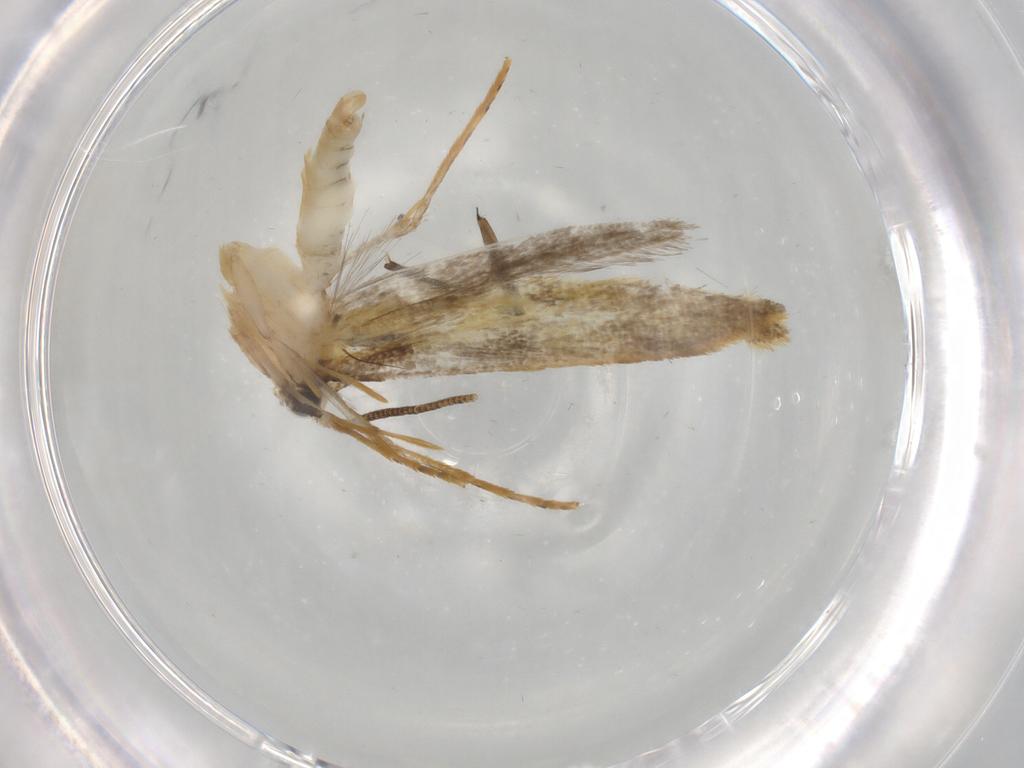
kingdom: Animalia
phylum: Arthropoda
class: Insecta
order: Lepidoptera
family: Tineidae
